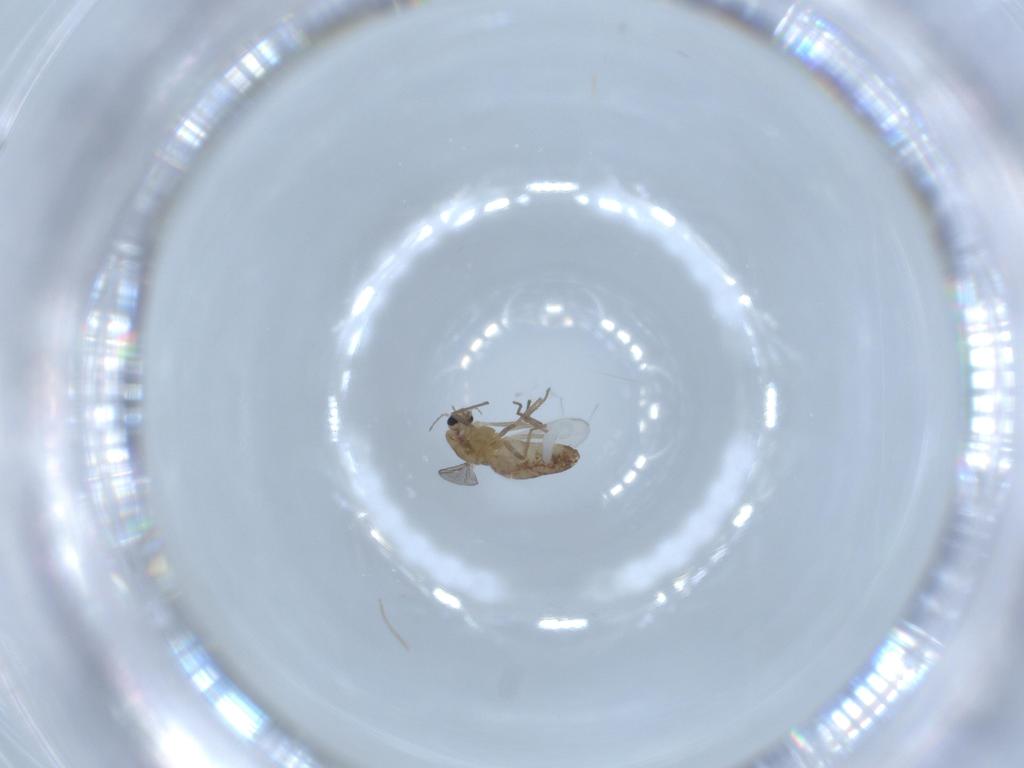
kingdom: Animalia
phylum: Arthropoda
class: Insecta
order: Diptera
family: Chironomidae
